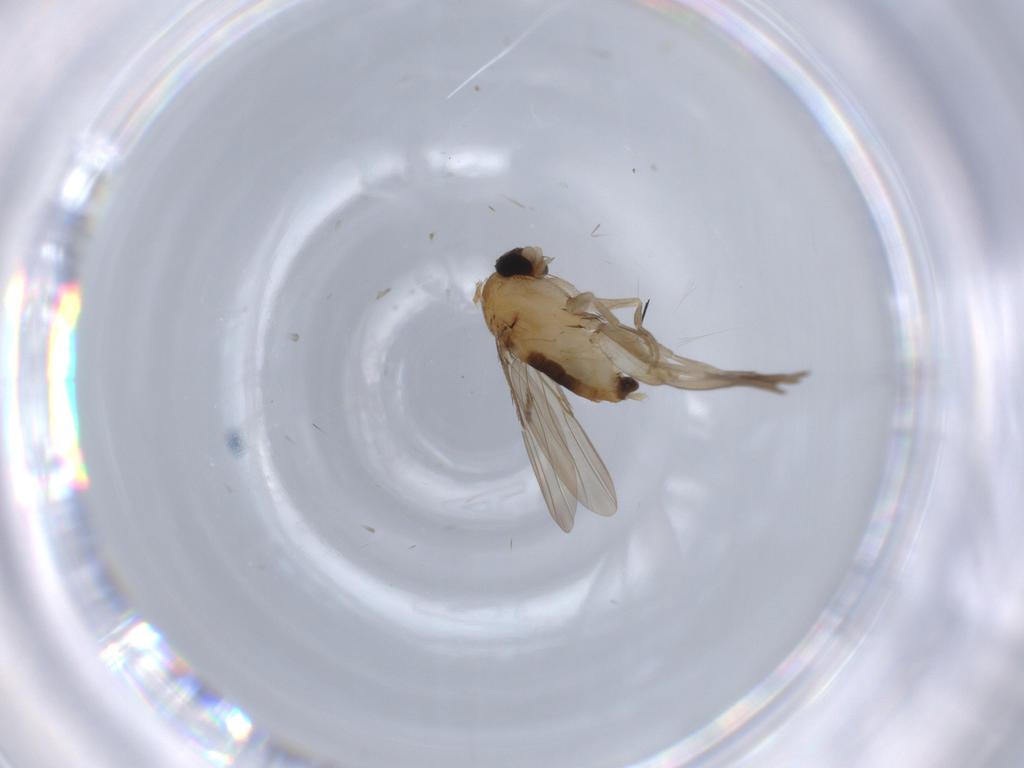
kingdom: Animalia
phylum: Arthropoda
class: Insecta
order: Diptera
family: Phoridae
